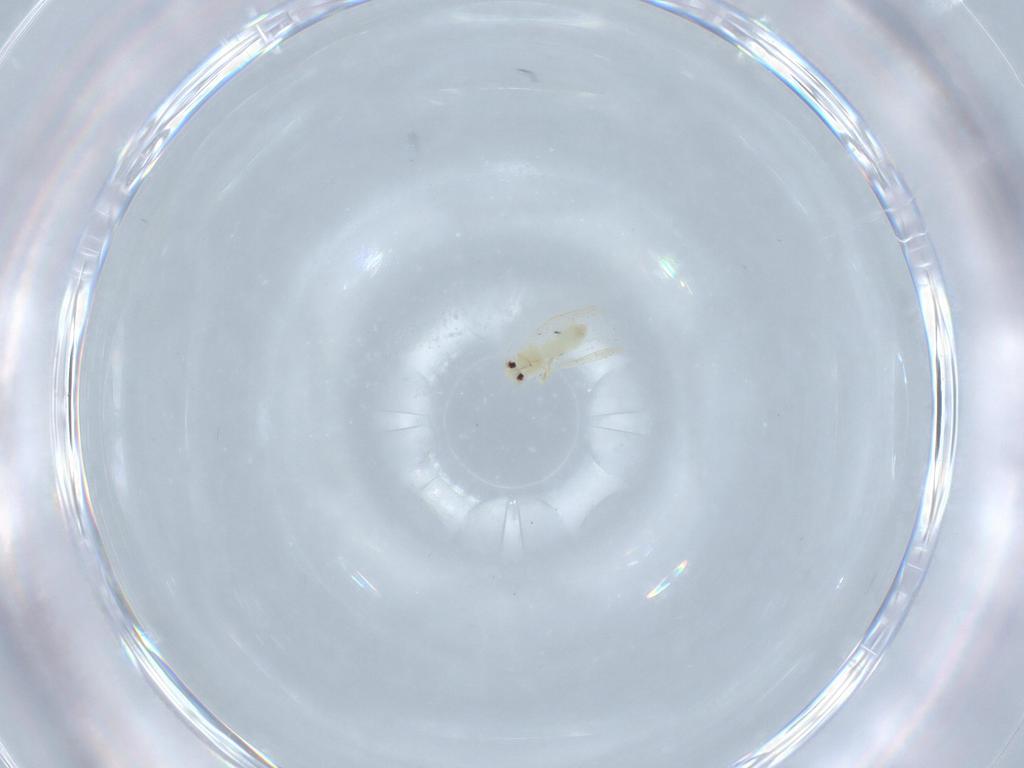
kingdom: Animalia
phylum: Arthropoda
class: Insecta
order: Hemiptera
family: Aleyrodidae
